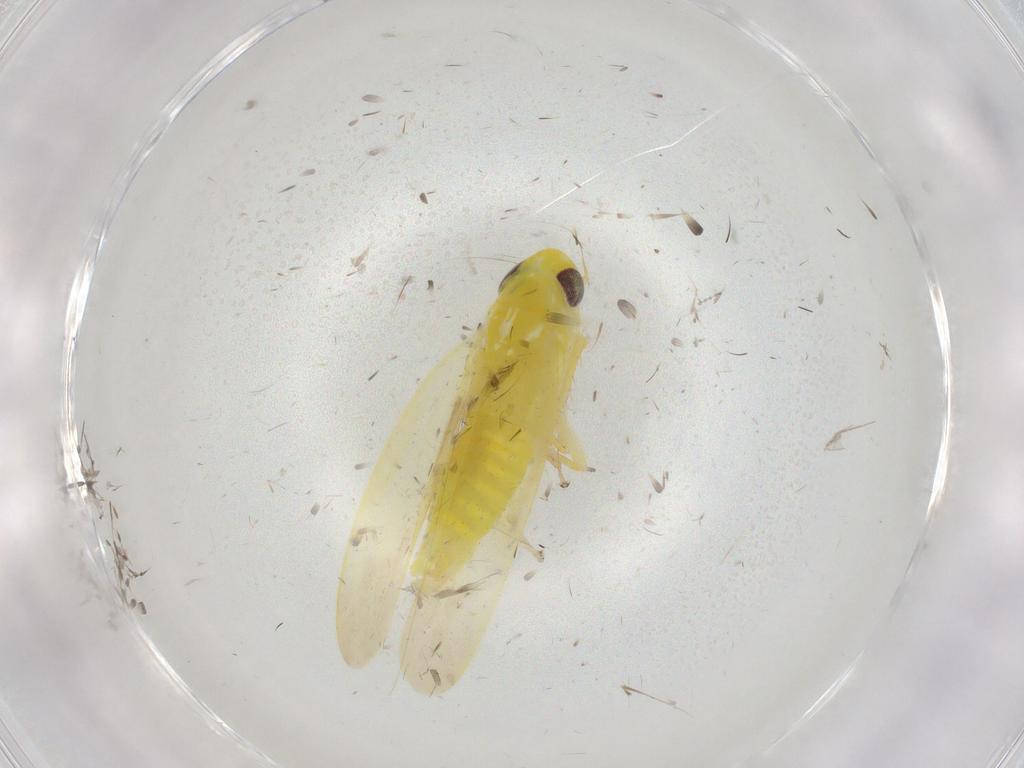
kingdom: Animalia
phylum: Arthropoda
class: Insecta
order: Hemiptera
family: Cicadellidae
